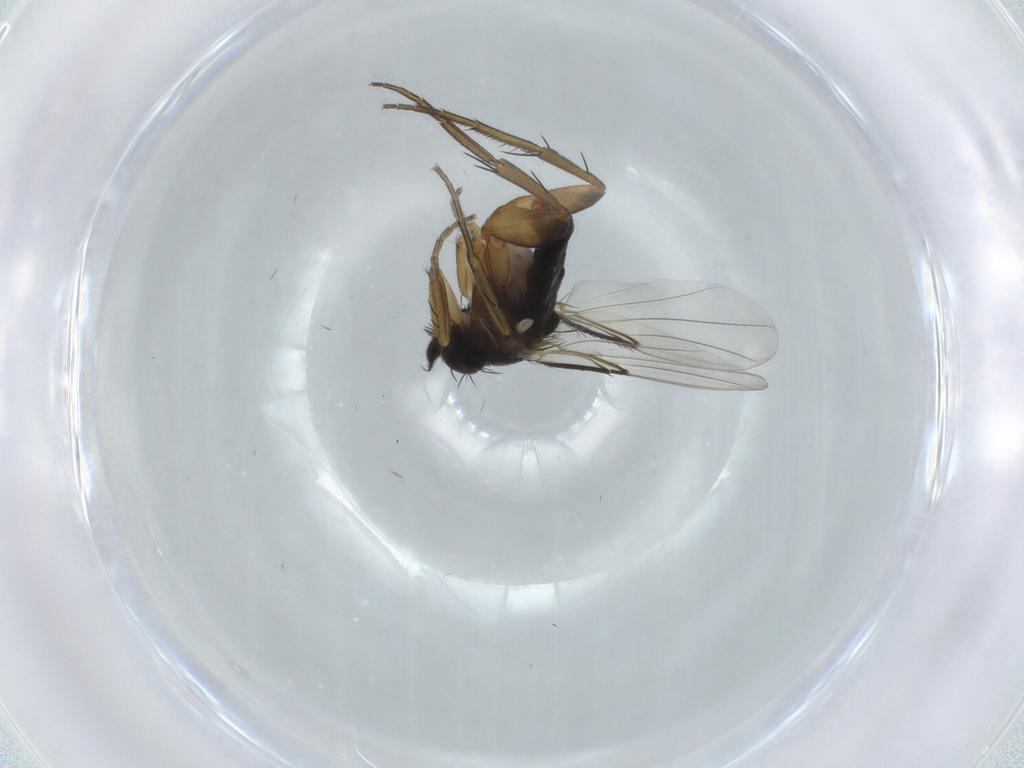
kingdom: Animalia
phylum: Arthropoda
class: Insecta
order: Diptera
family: Phoridae
